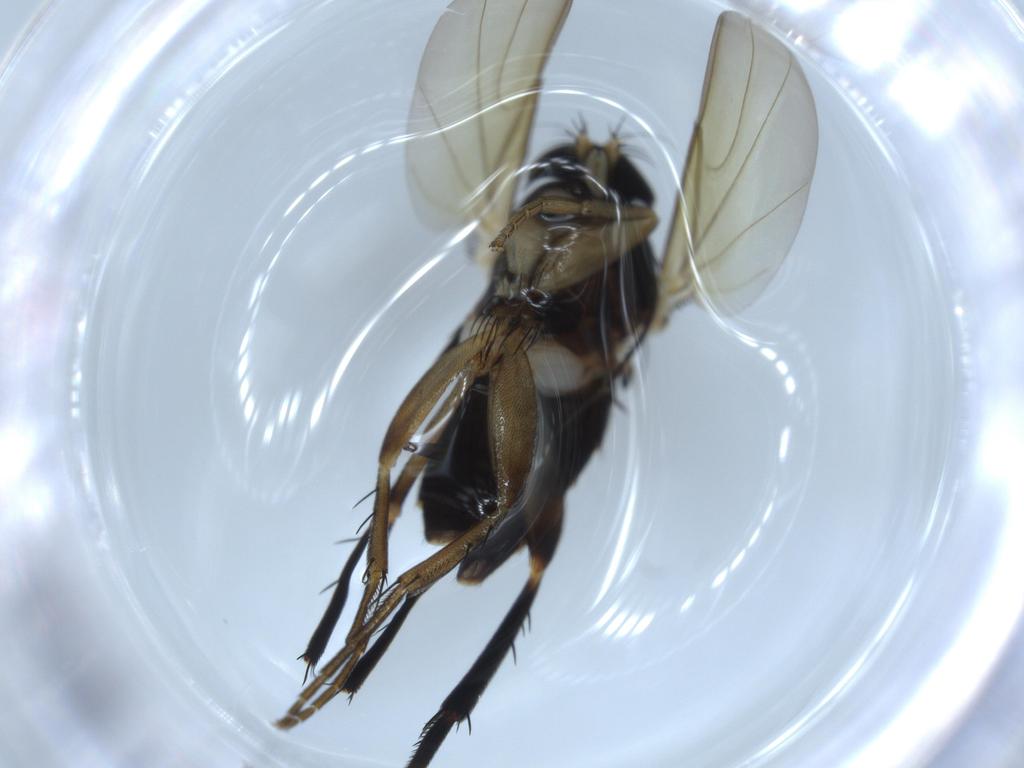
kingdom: Animalia
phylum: Arthropoda
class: Insecta
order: Diptera
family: Phoridae
